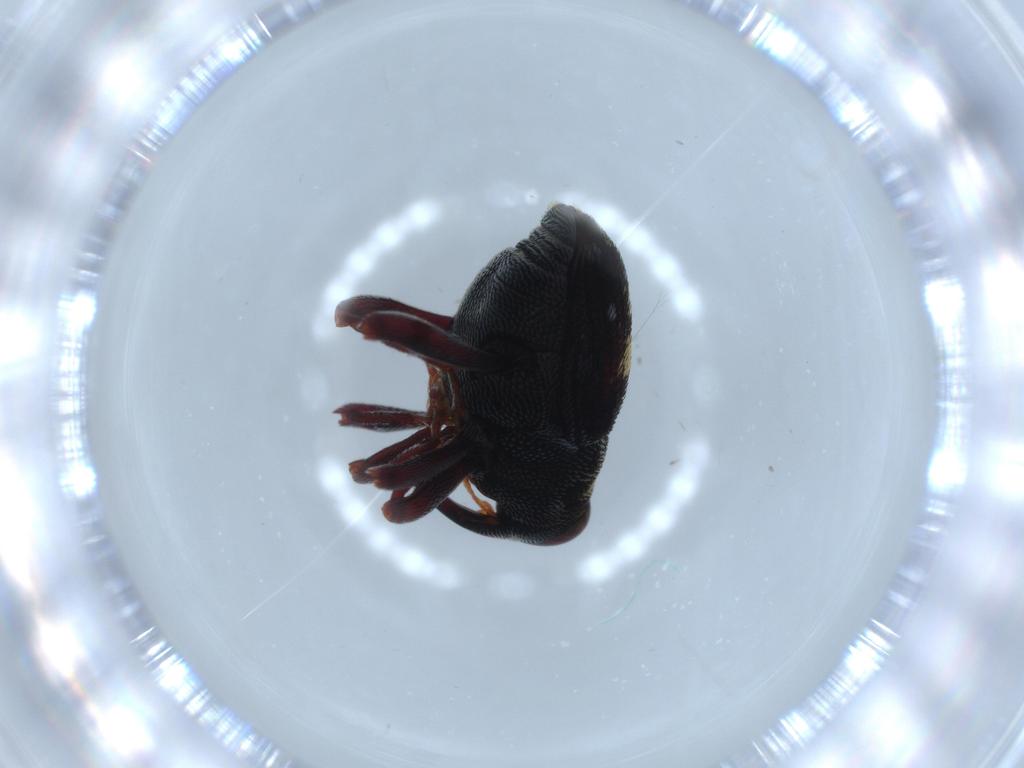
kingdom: Animalia
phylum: Arthropoda
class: Insecta
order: Coleoptera
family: Curculionidae
